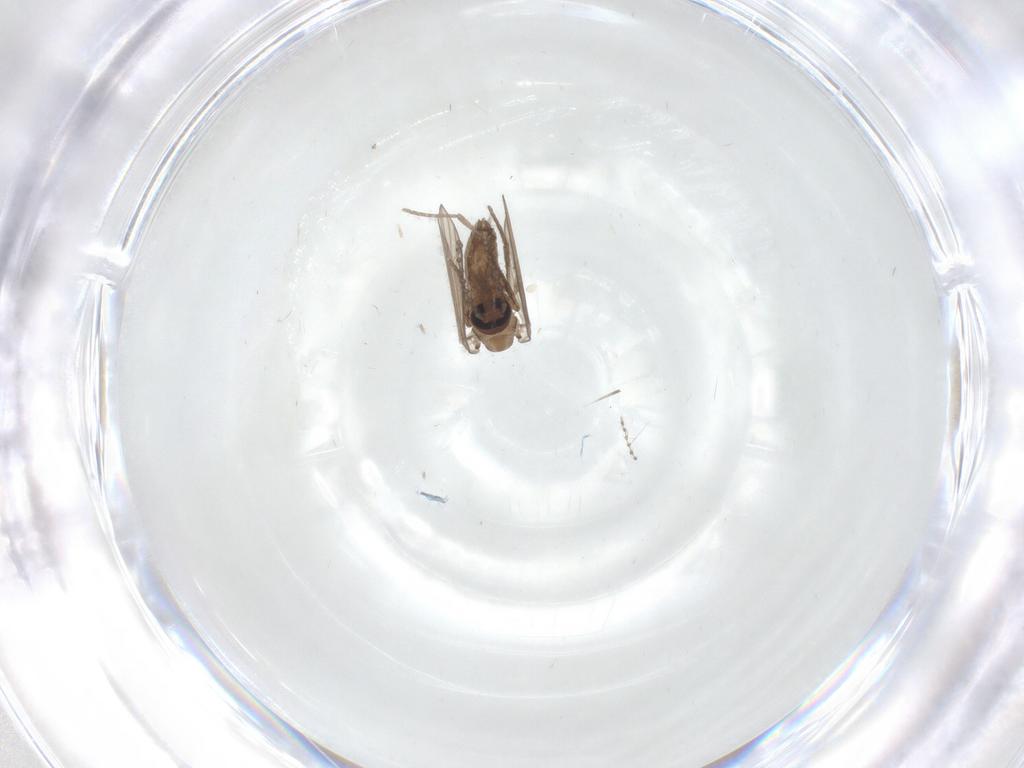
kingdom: Animalia
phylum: Arthropoda
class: Insecta
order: Diptera
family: Psychodidae
